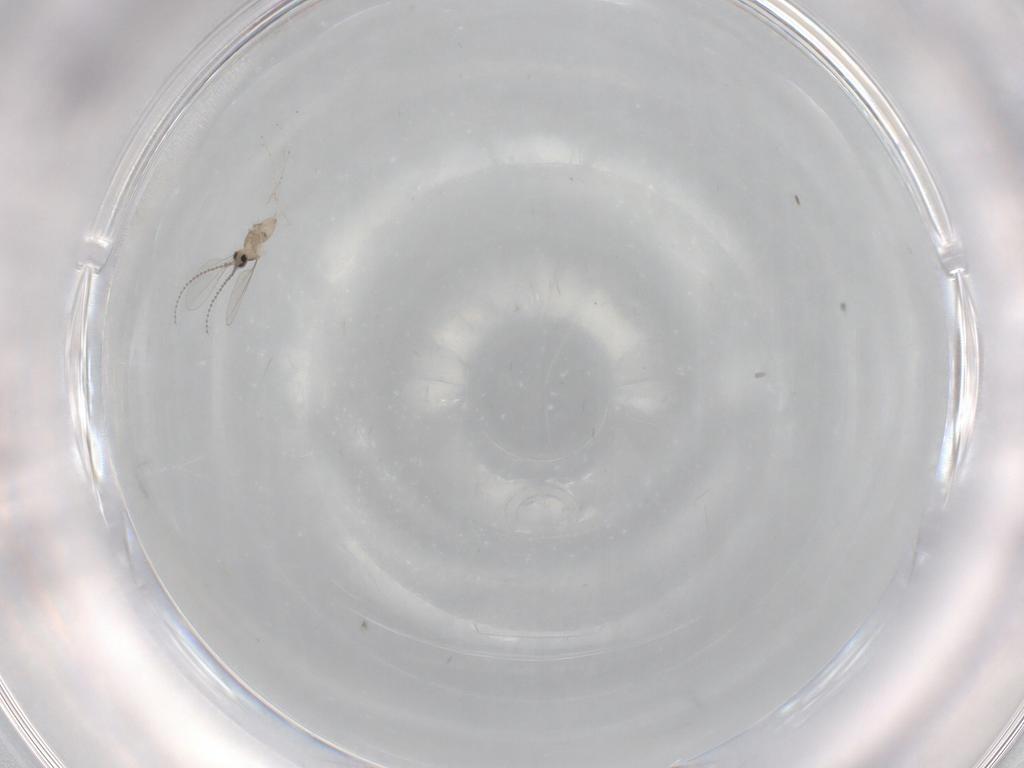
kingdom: Animalia
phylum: Arthropoda
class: Insecta
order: Diptera
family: Cecidomyiidae
